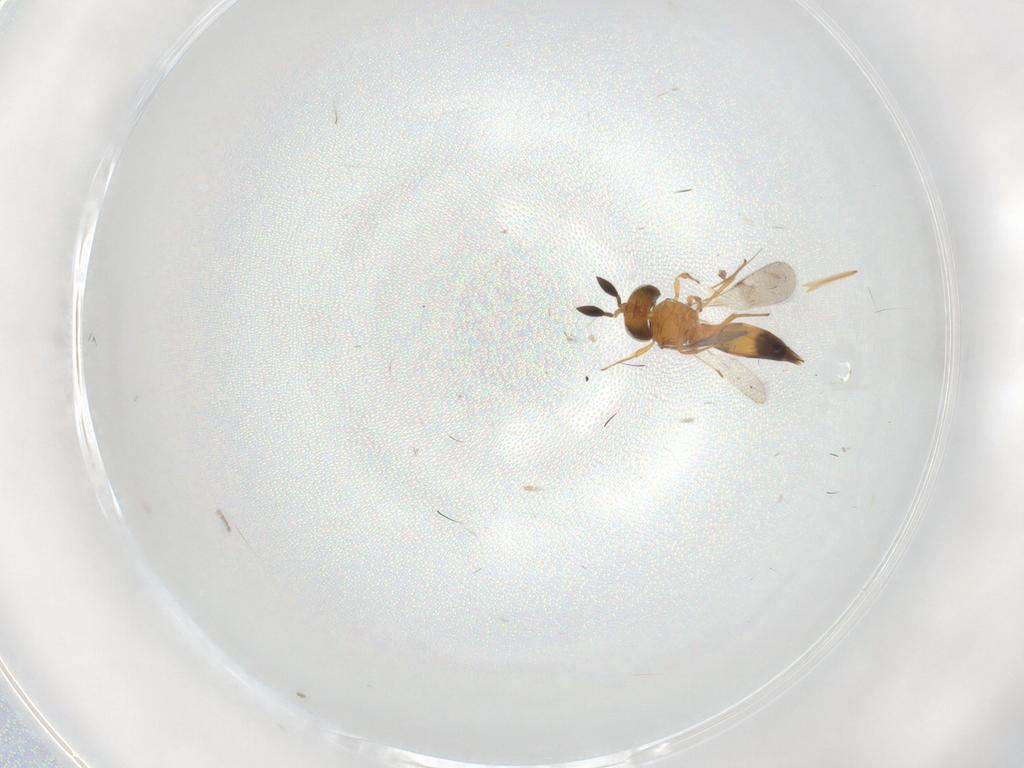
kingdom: Animalia
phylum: Arthropoda
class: Insecta
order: Hymenoptera
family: Scelionidae
